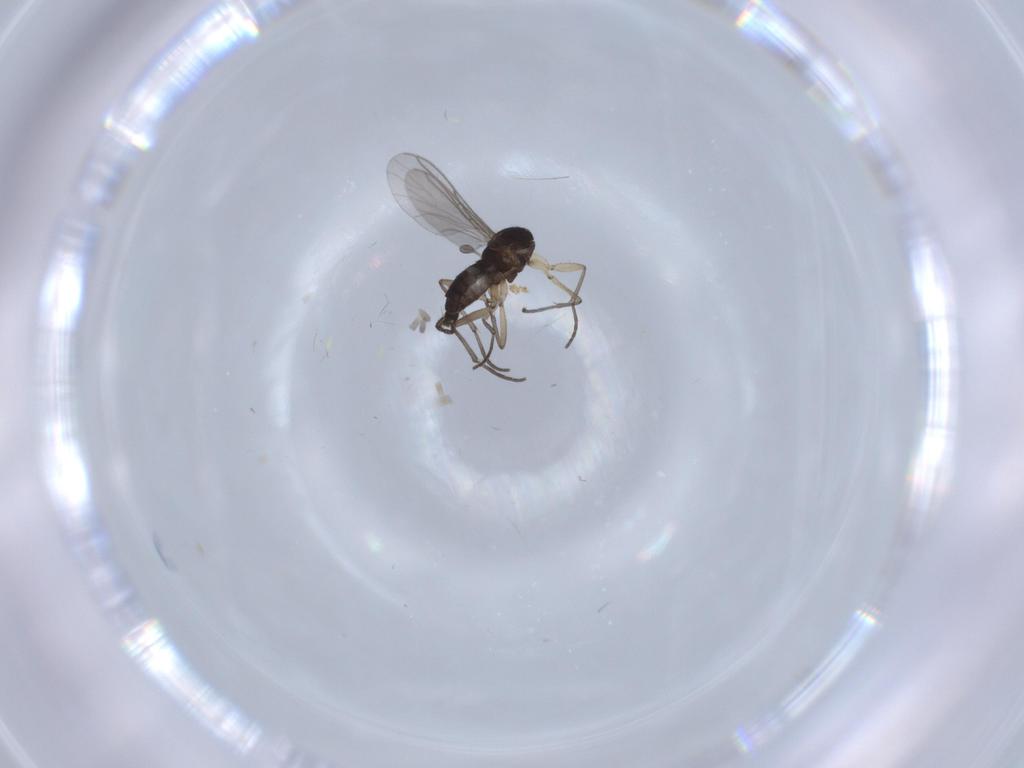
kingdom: Animalia
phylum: Arthropoda
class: Insecta
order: Diptera
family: Sciaridae
